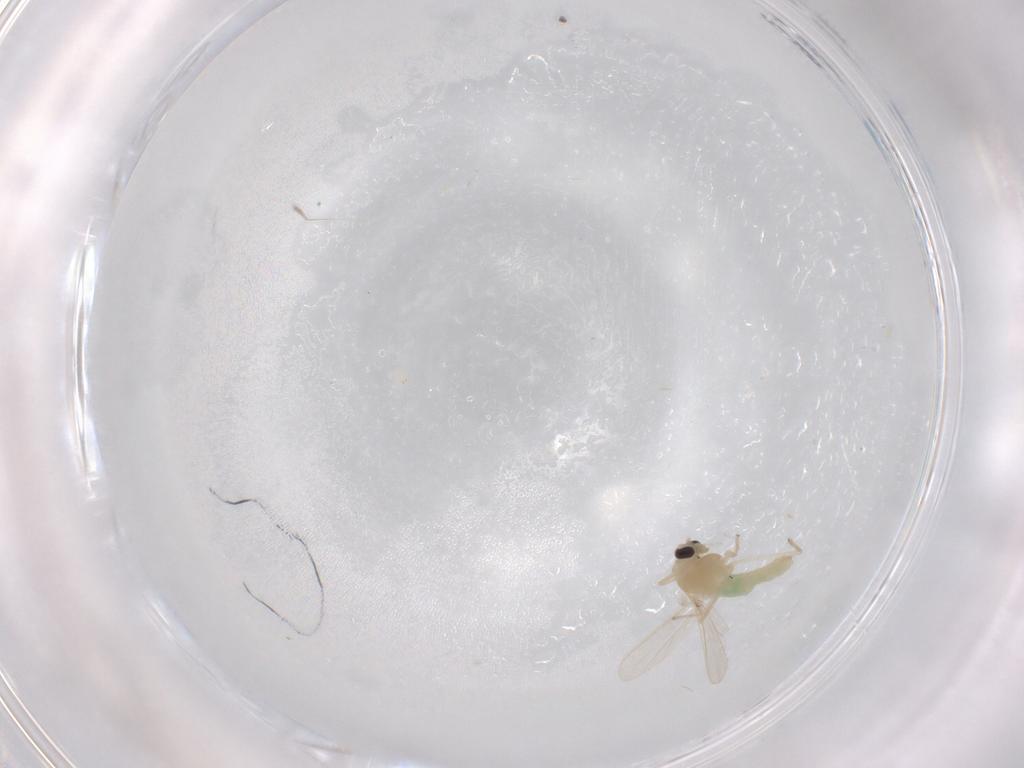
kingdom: Animalia
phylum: Arthropoda
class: Insecta
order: Diptera
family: Chironomidae
